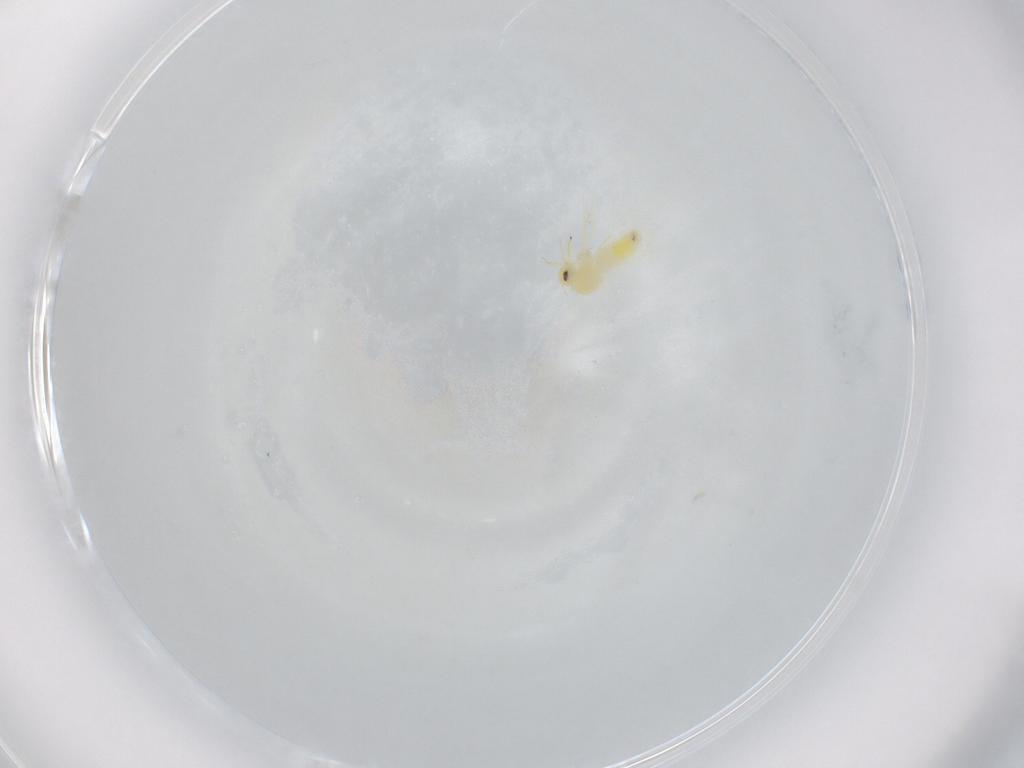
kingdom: Animalia
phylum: Arthropoda
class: Insecta
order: Hemiptera
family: Aleyrodidae
